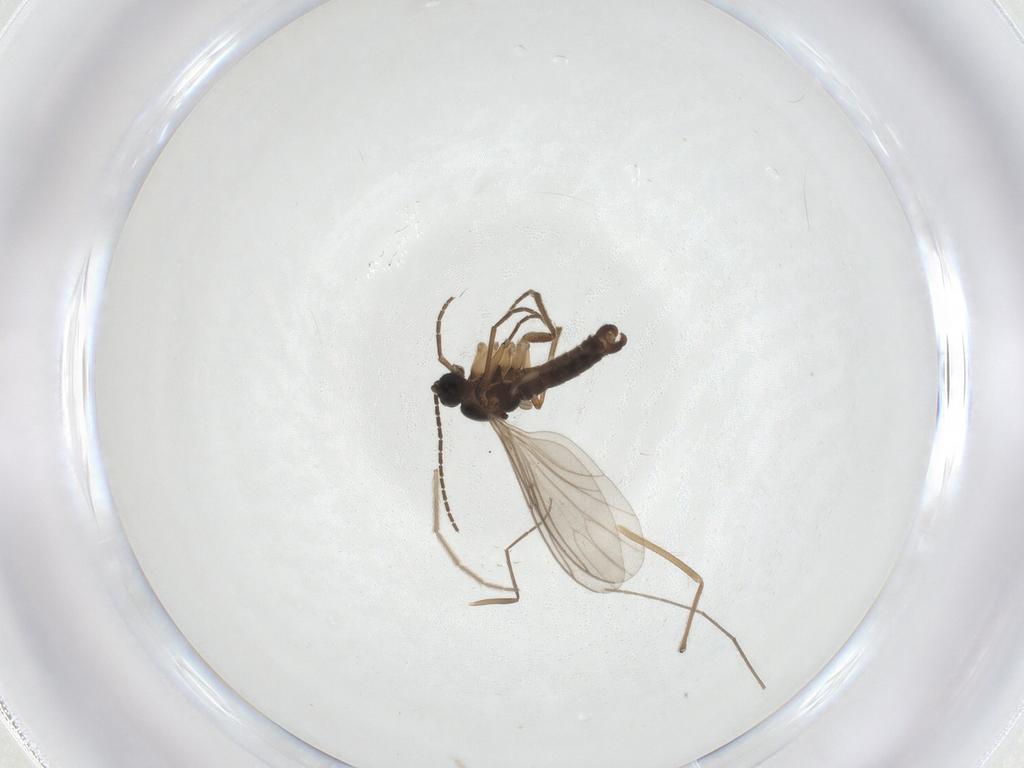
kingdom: Animalia
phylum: Arthropoda
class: Insecta
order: Diptera
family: Sciaridae
